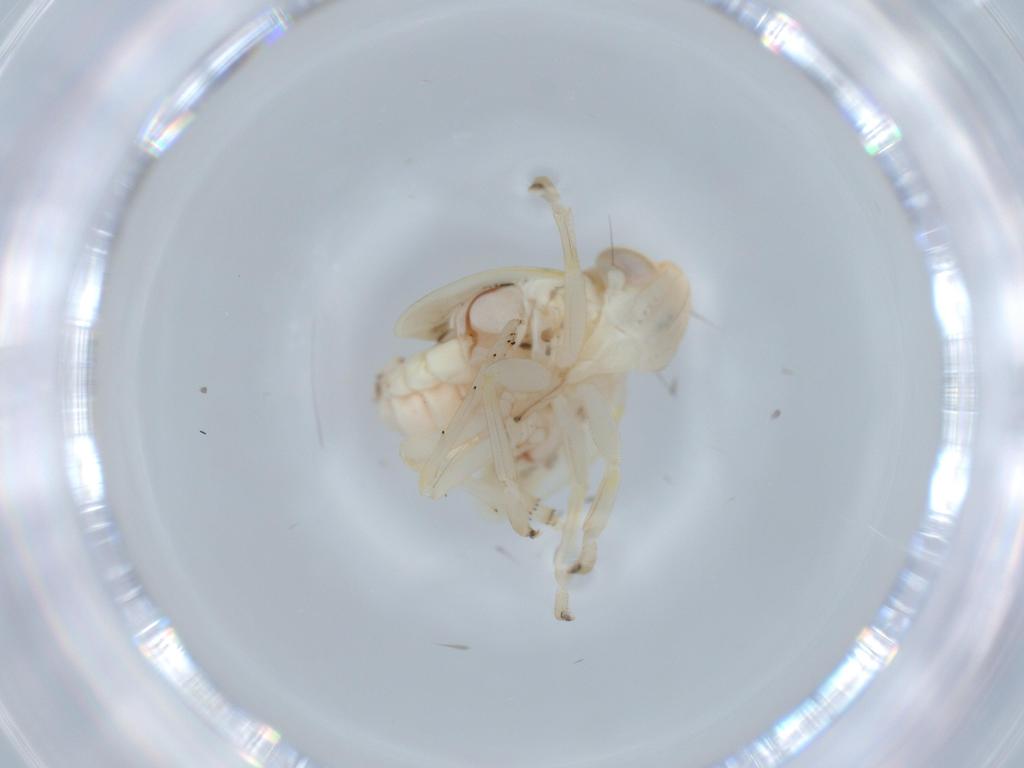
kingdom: Animalia
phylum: Arthropoda
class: Insecta
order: Hemiptera
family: Nogodinidae
